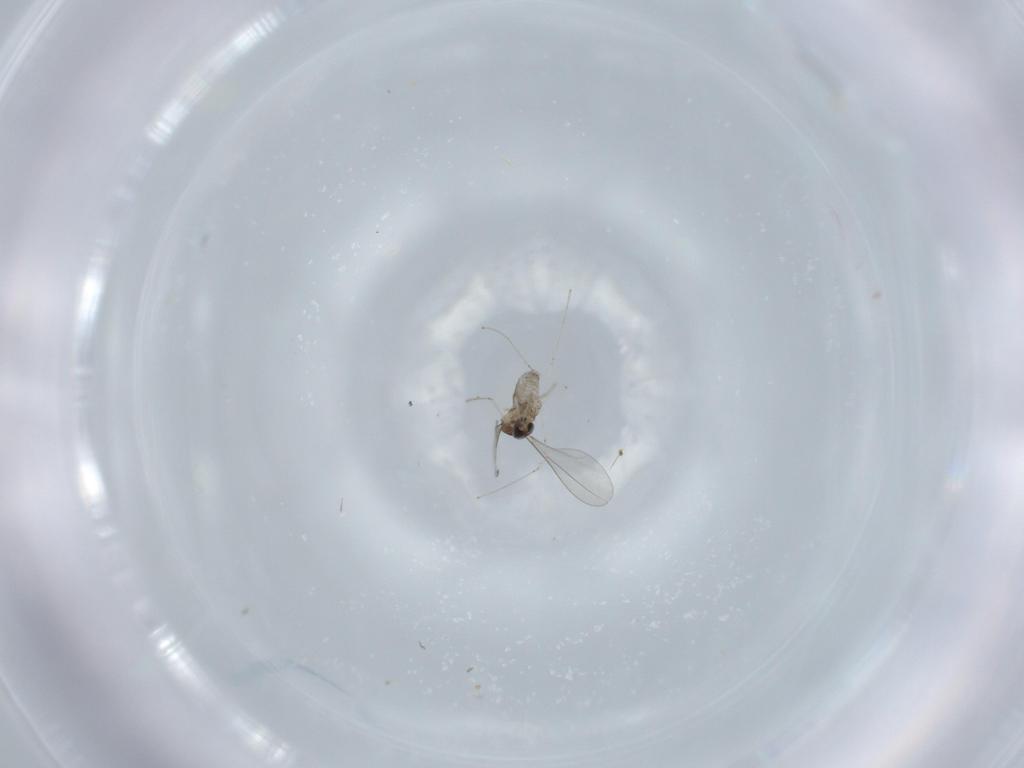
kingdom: Animalia
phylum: Arthropoda
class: Insecta
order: Diptera
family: Cecidomyiidae
